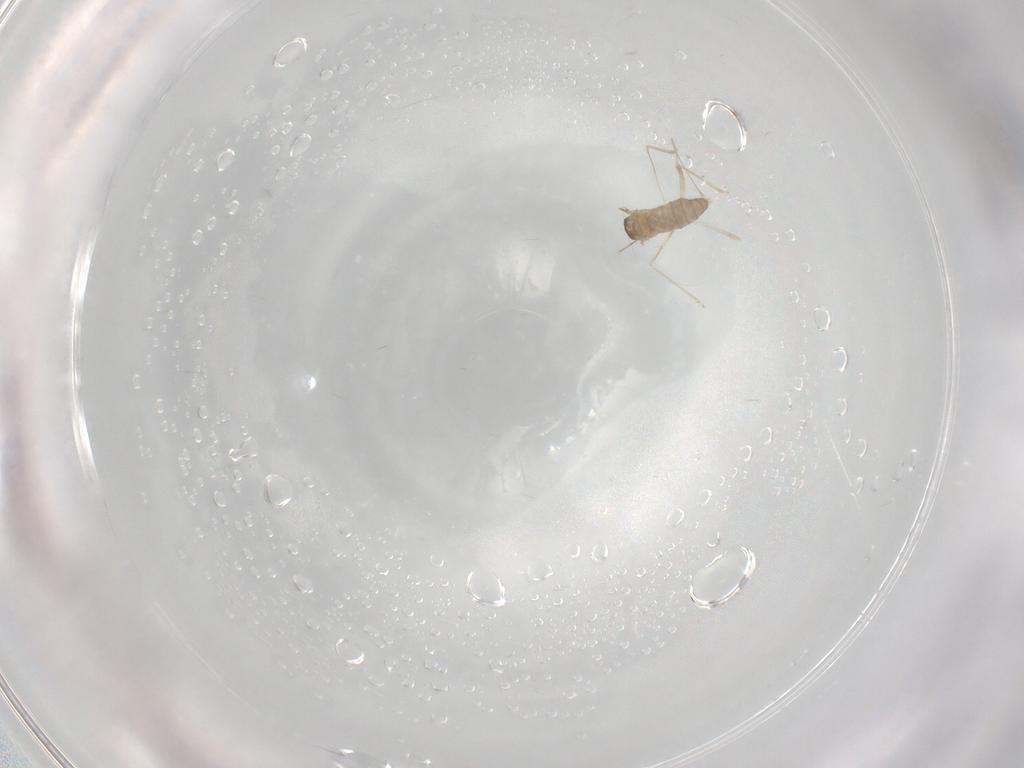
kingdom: Animalia
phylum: Arthropoda
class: Insecta
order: Diptera
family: Cecidomyiidae
